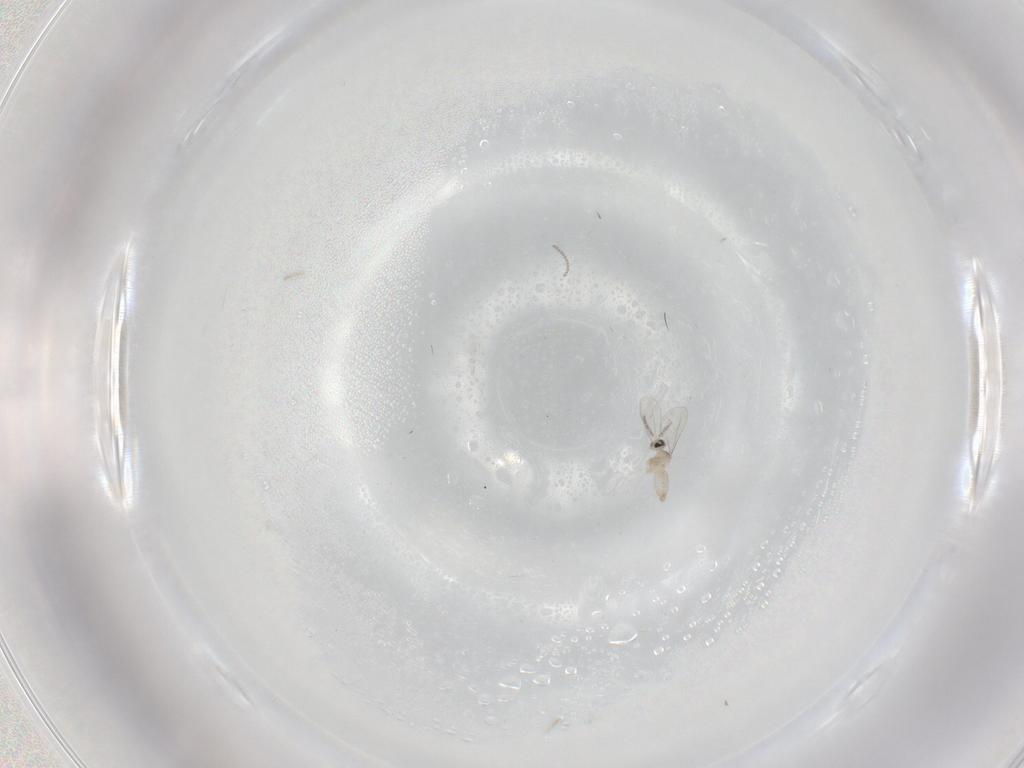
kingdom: Animalia
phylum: Arthropoda
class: Insecta
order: Diptera
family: Cecidomyiidae
